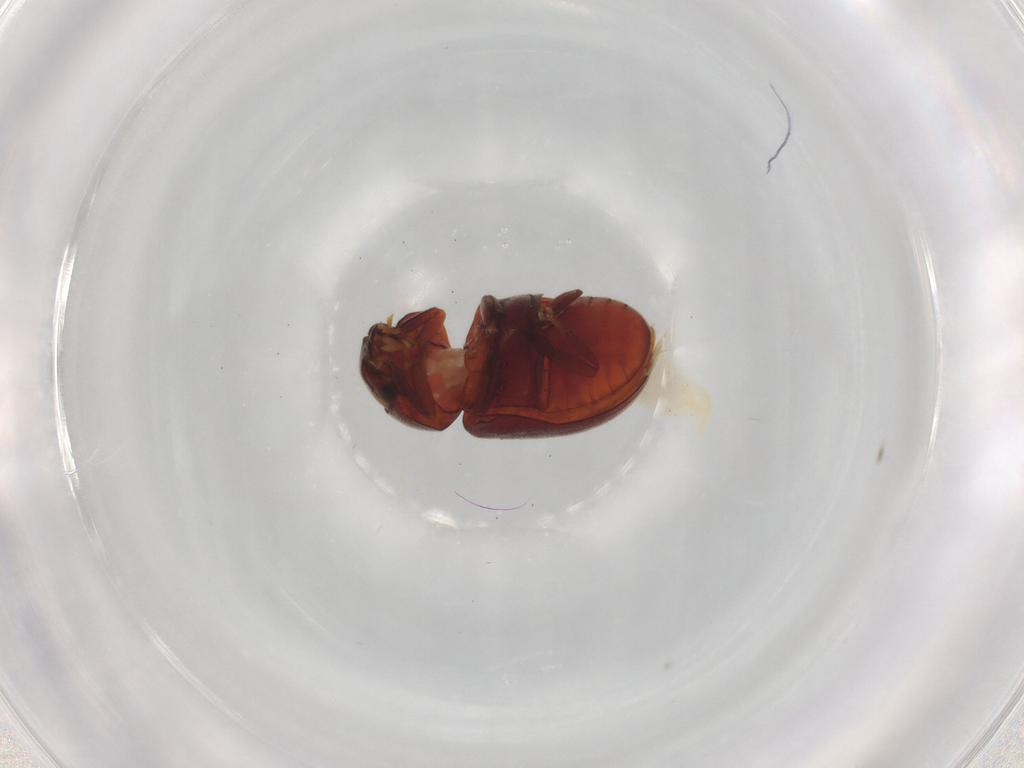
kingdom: Animalia
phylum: Arthropoda
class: Insecta
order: Coleoptera
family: Ptinidae
